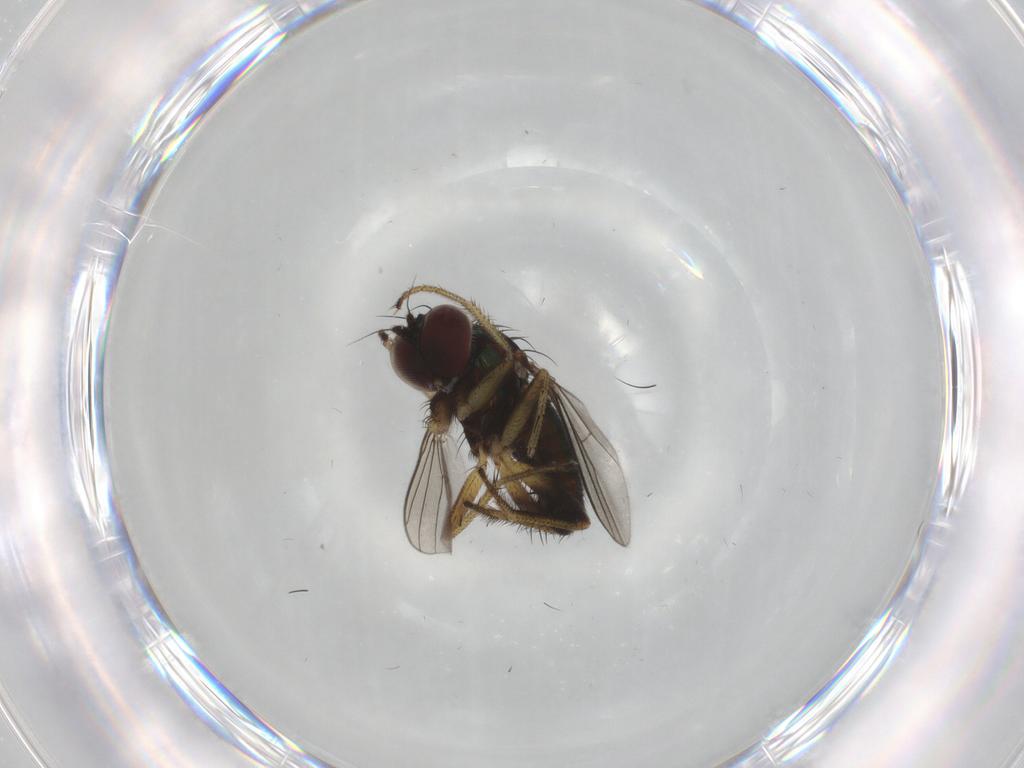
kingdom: Animalia
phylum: Arthropoda
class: Insecta
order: Diptera
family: Dolichopodidae
